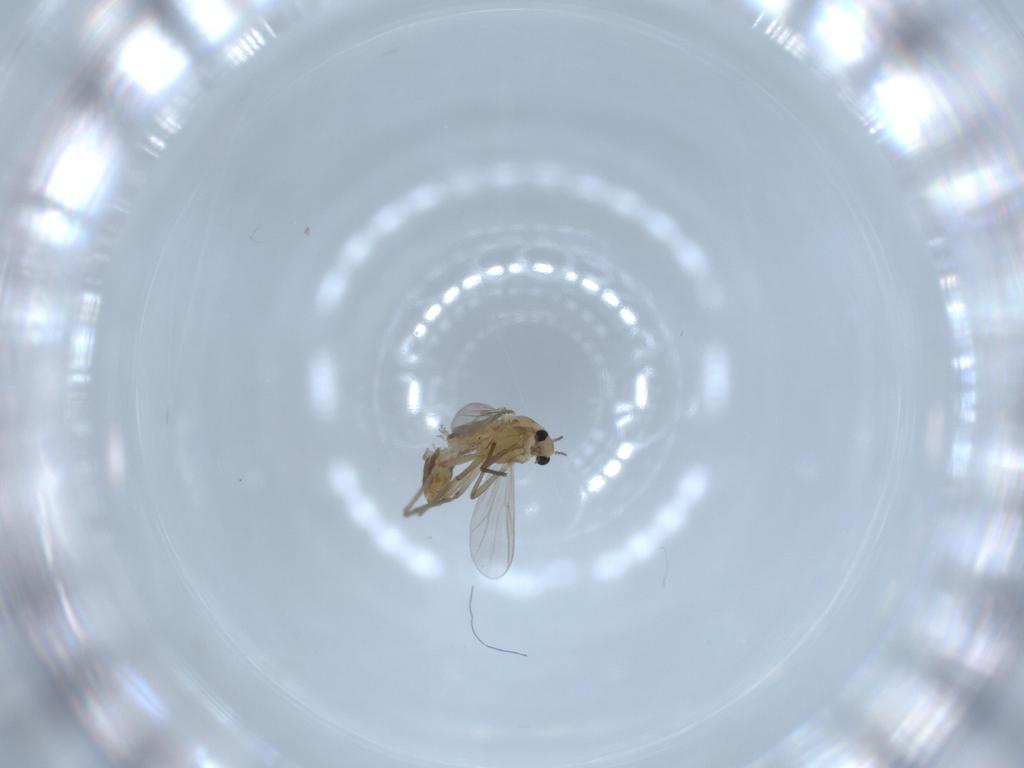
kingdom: Animalia
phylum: Arthropoda
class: Insecta
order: Diptera
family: Chironomidae
